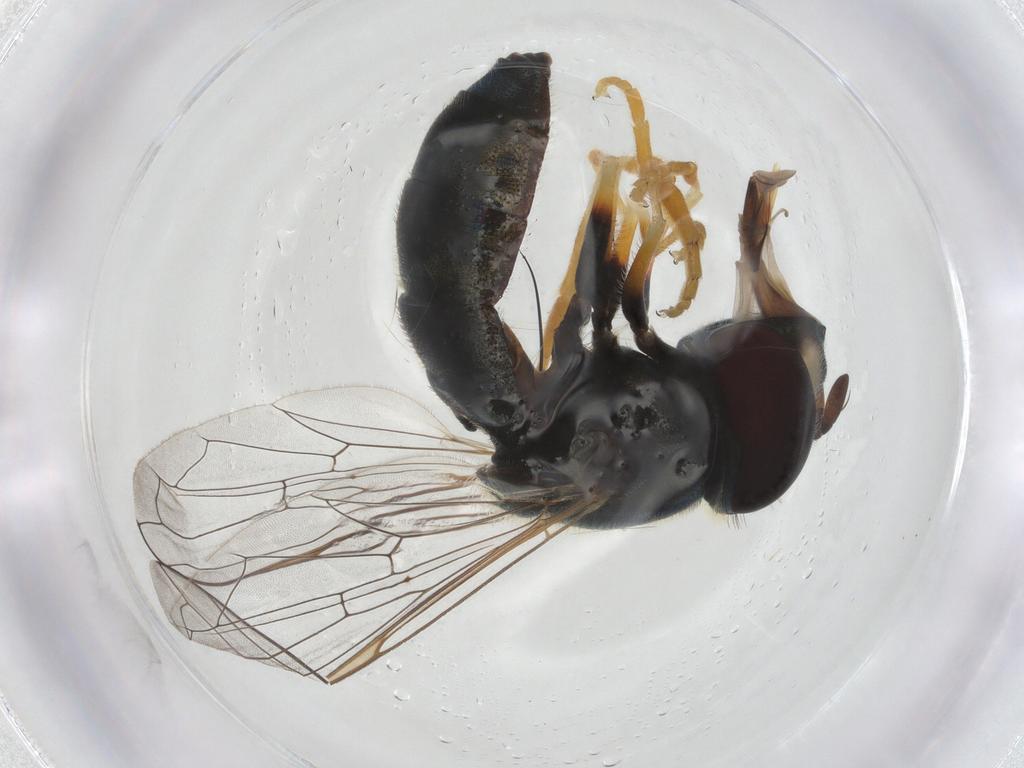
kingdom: Animalia
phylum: Arthropoda
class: Insecta
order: Diptera
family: Syrphidae
